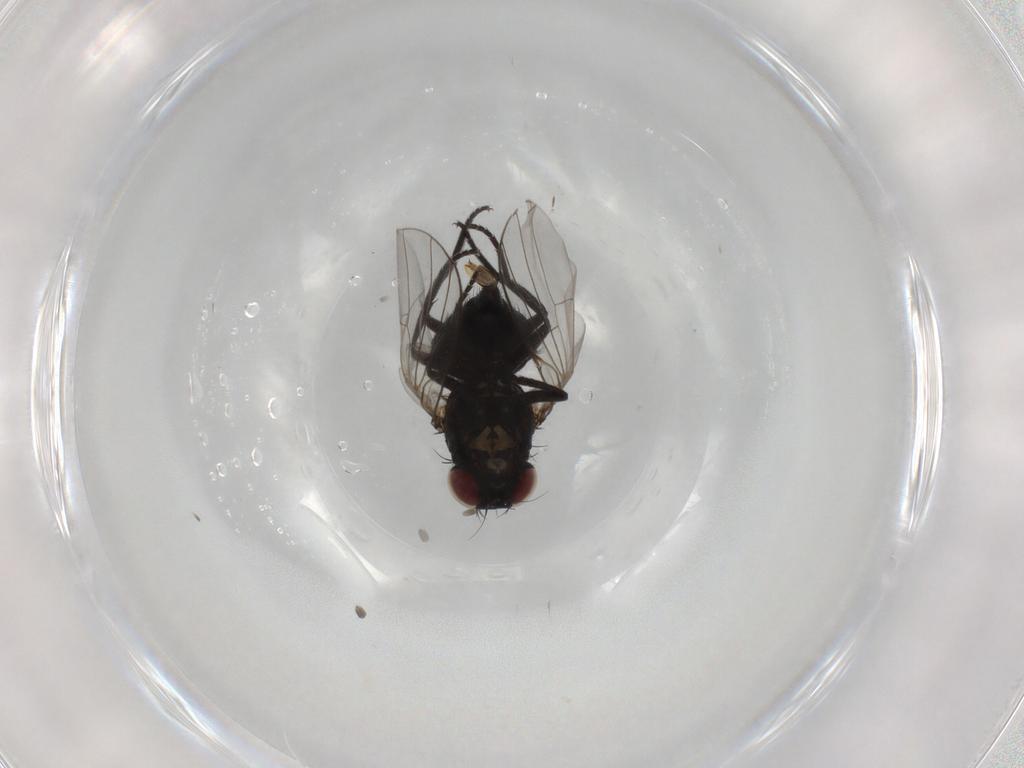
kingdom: Animalia
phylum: Arthropoda
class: Insecta
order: Diptera
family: Agromyzidae
